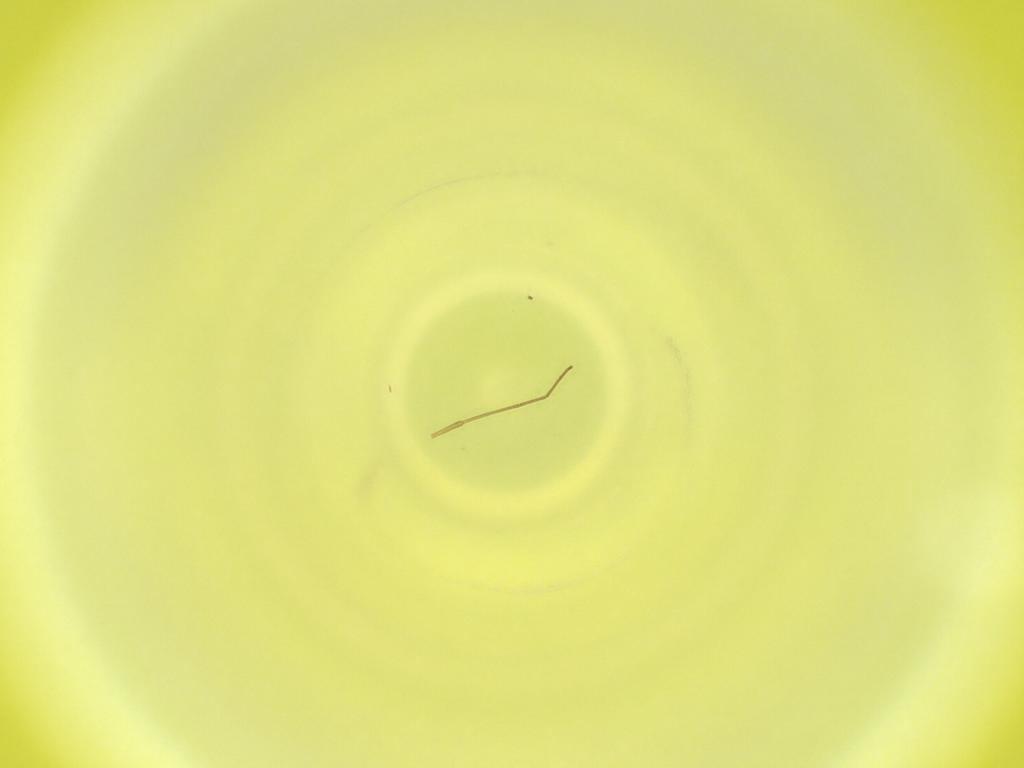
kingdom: Animalia
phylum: Arthropoda
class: Insecta
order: Diptera
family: Cecidomyiidae
